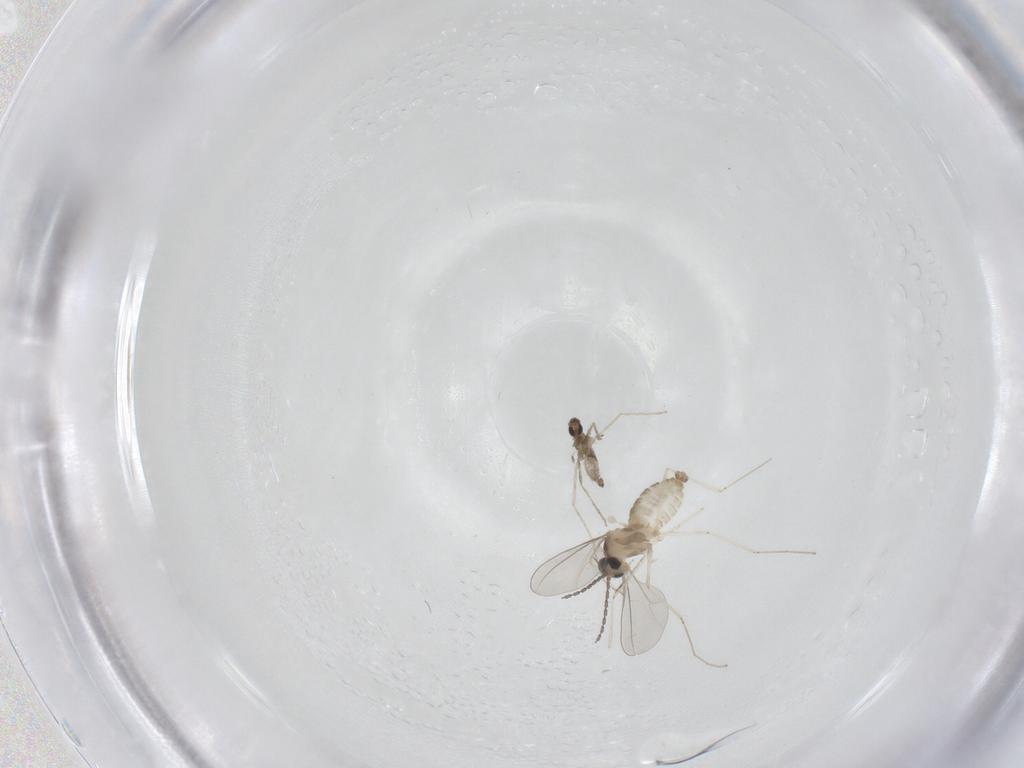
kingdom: Animalia
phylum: Arthropoda
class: Insecta
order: Diptera
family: Cecidomyiidae
